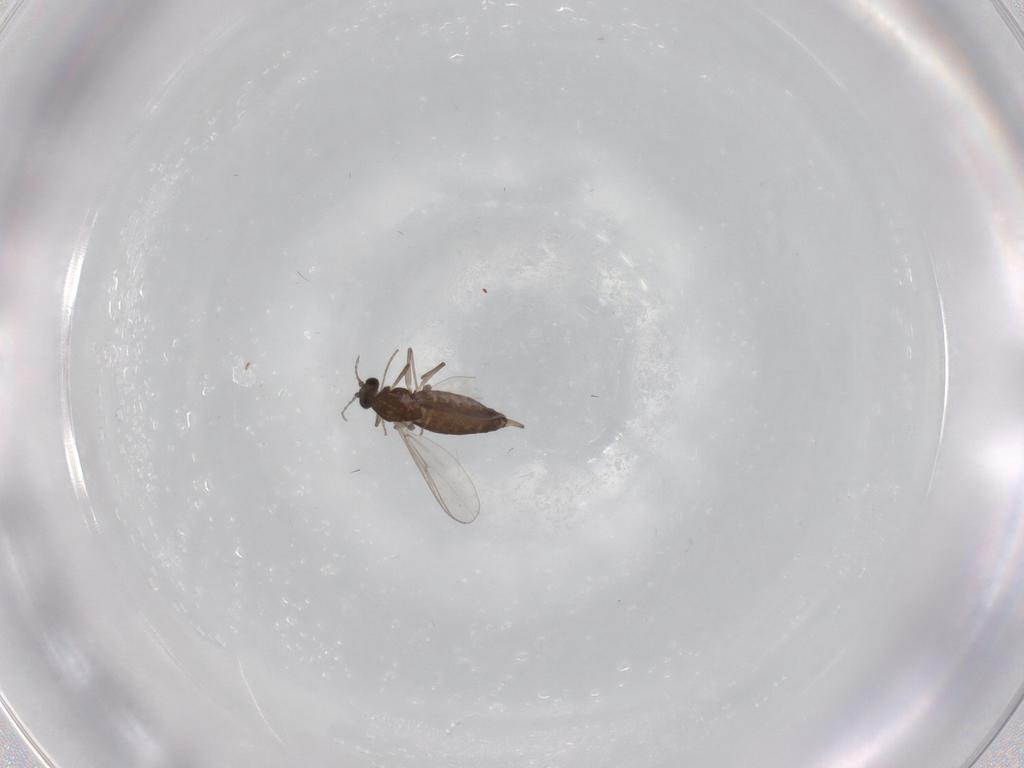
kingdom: Animalia
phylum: Arthropoda
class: Insecta
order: Diptera
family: Chironomidae
